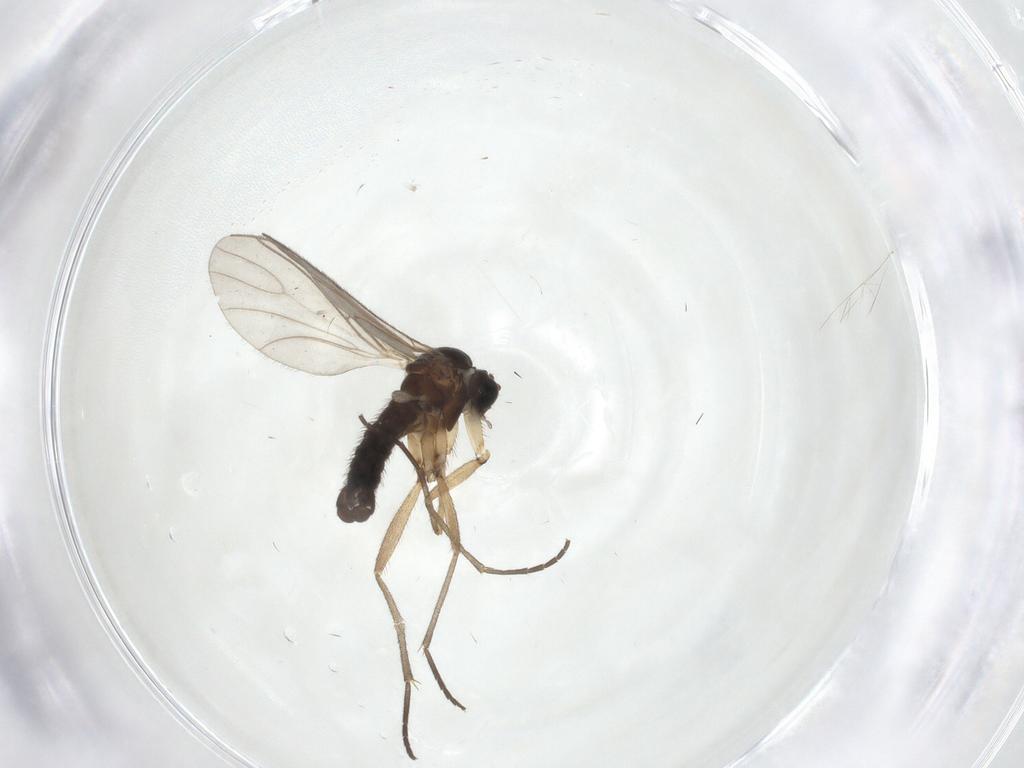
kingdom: Animalia
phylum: Arthropoda
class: Insecta
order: Diptera
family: Sciaridae
